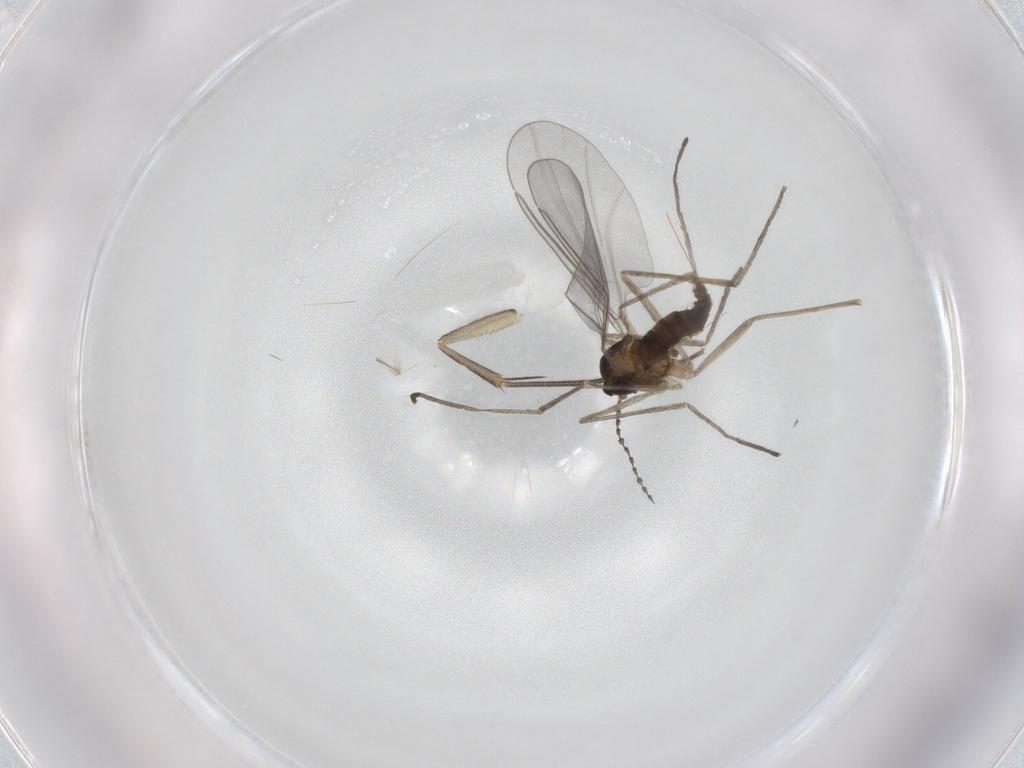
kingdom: Animalia
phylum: Arthropoda
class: Insecta
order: Diptera
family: Cecidomyiidae
